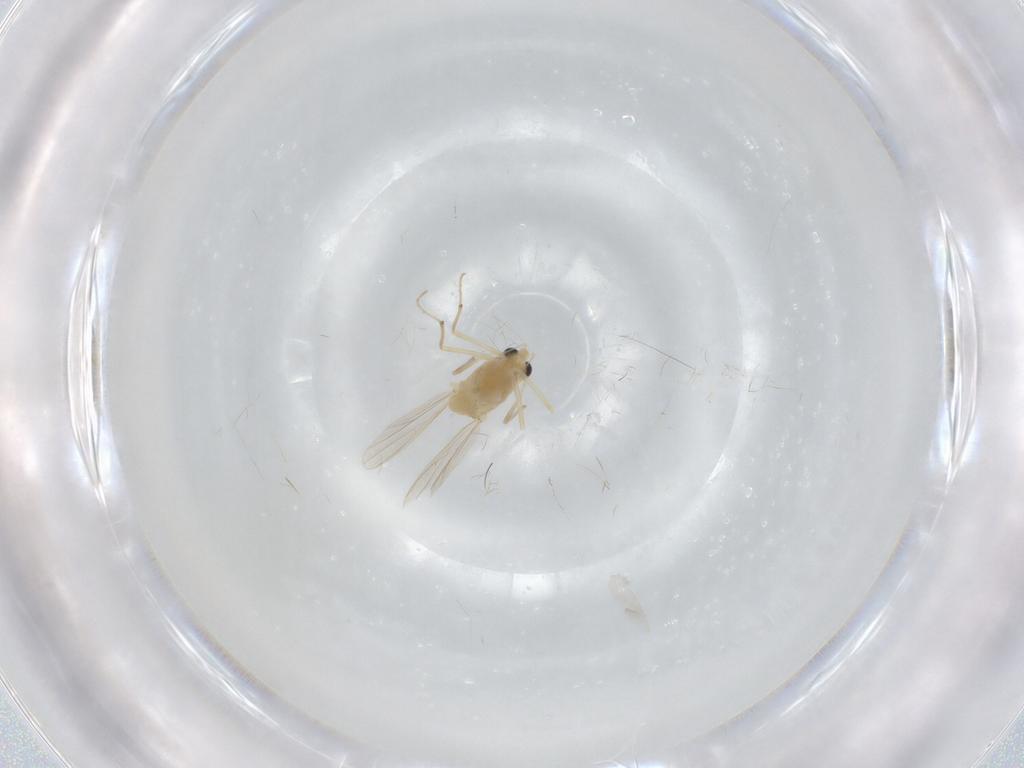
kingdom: Animalia
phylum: Arthropoda
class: Insecta
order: Diptera
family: Chironomidae
